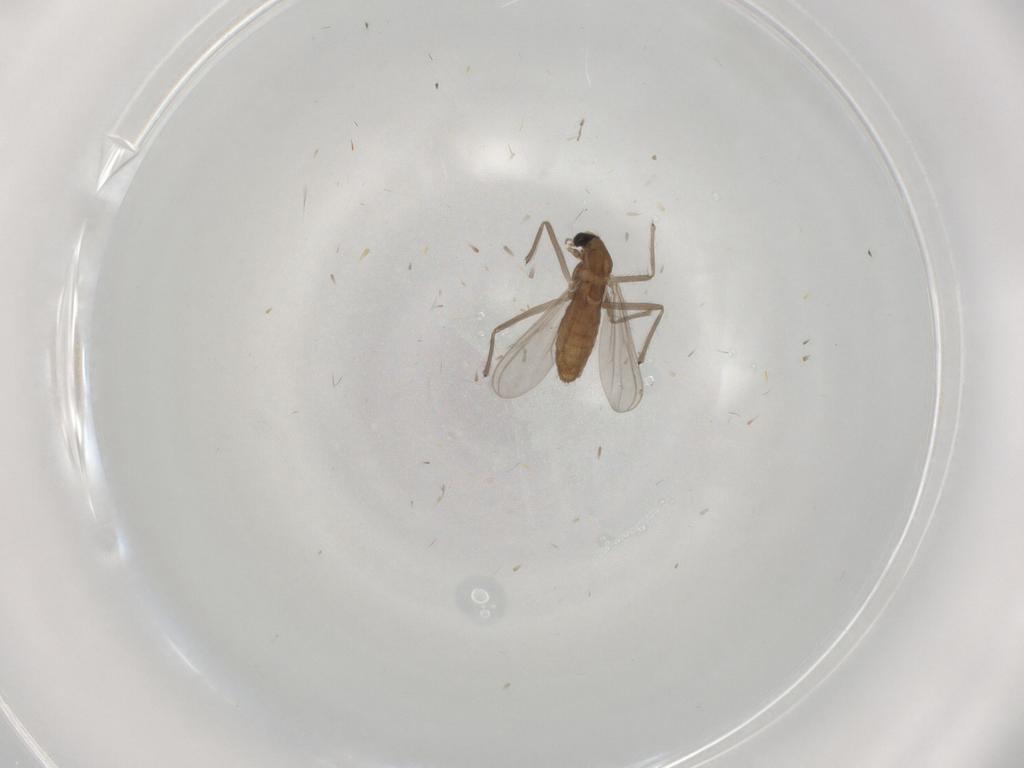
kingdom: Animalia
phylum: Arthropoda
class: Insecta
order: Diptera
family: Chironomidae
